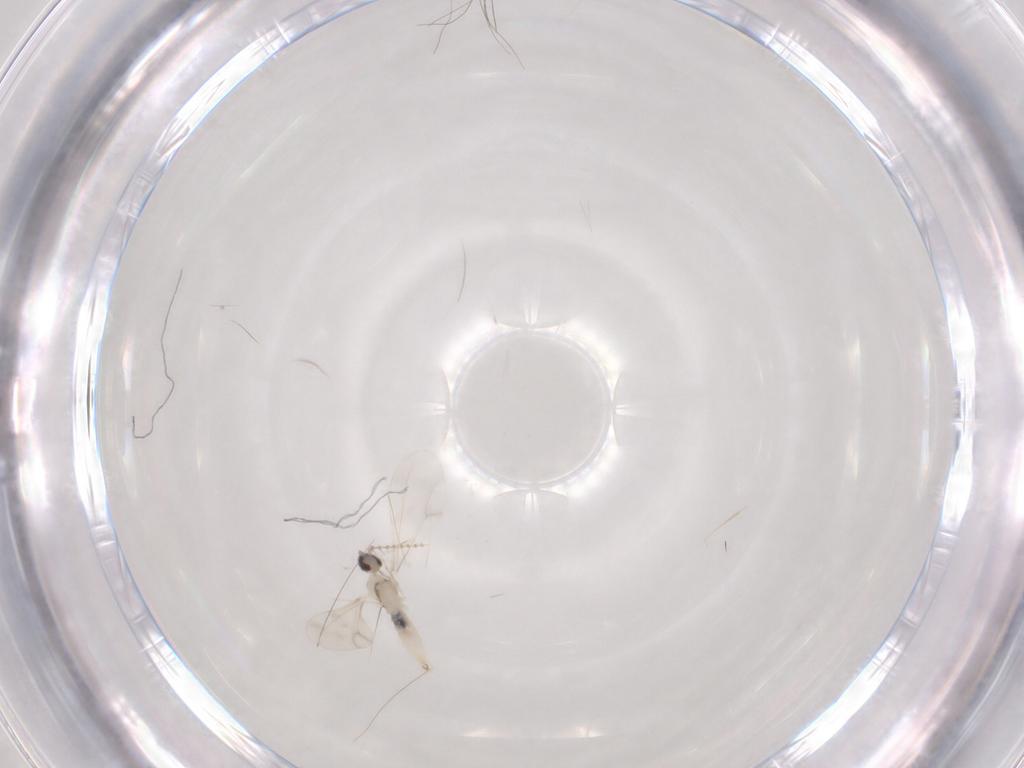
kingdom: Animalia
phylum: Arthropoda
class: Insecta
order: Diptera
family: Cecidomyiidae
